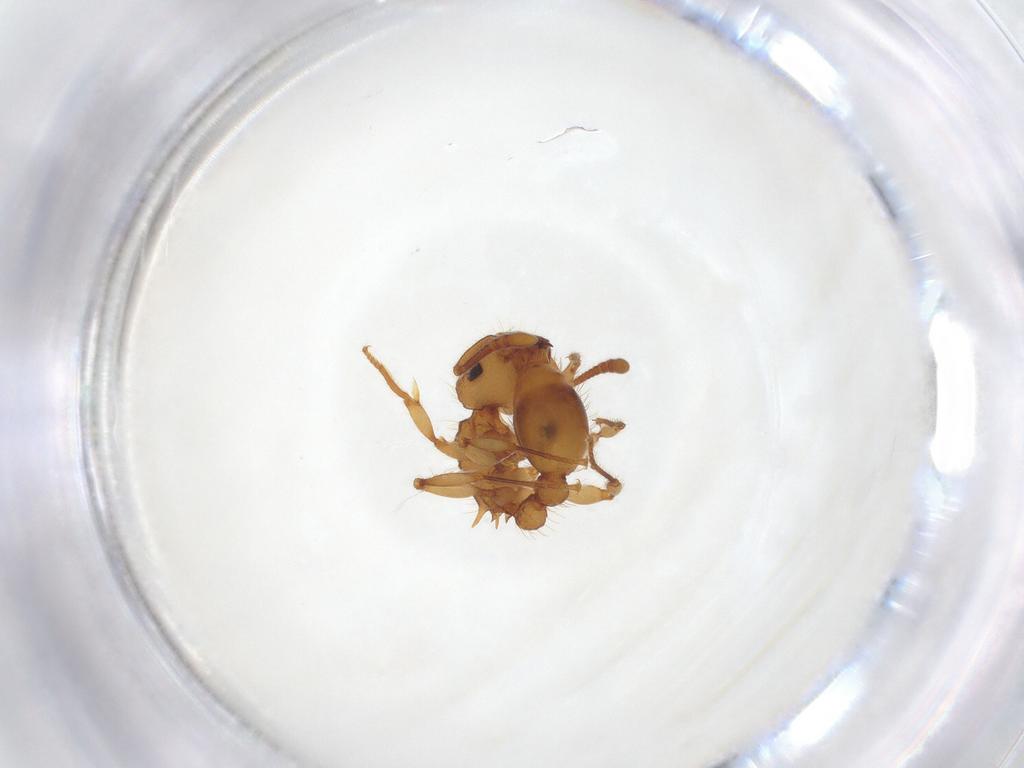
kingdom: Animalia
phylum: Arthropoda
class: Insecta
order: Hymenoptera
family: Formicidae
